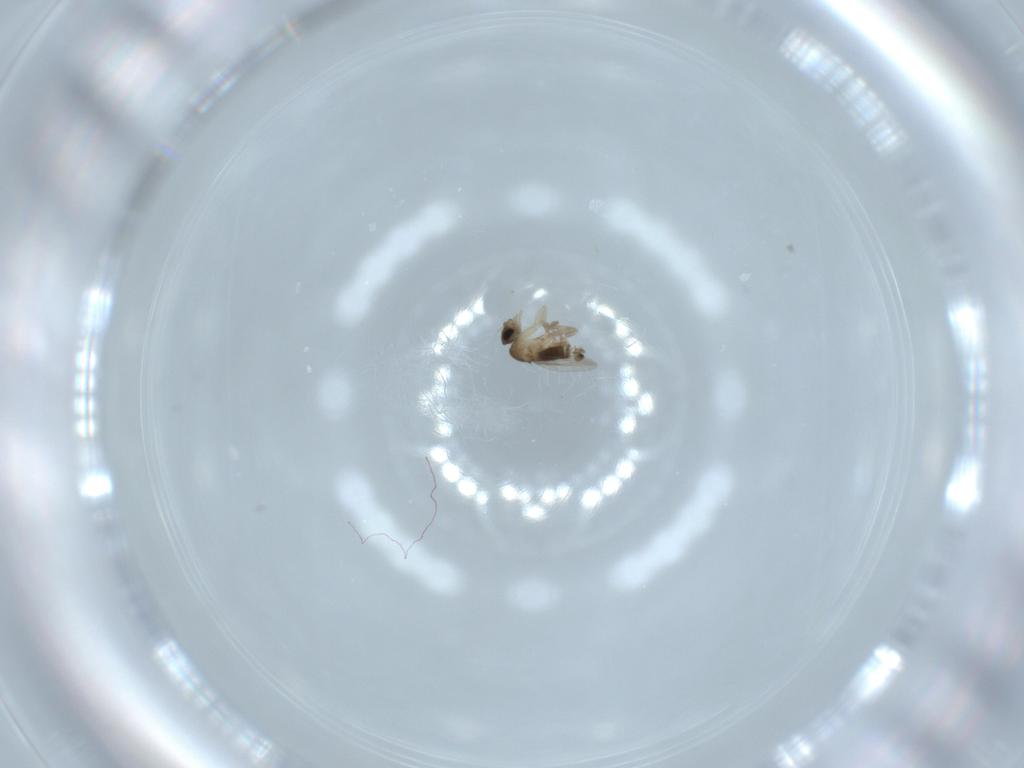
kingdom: Animalia
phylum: Arthropoda
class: Insecta
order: Diptera
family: Phoridae
